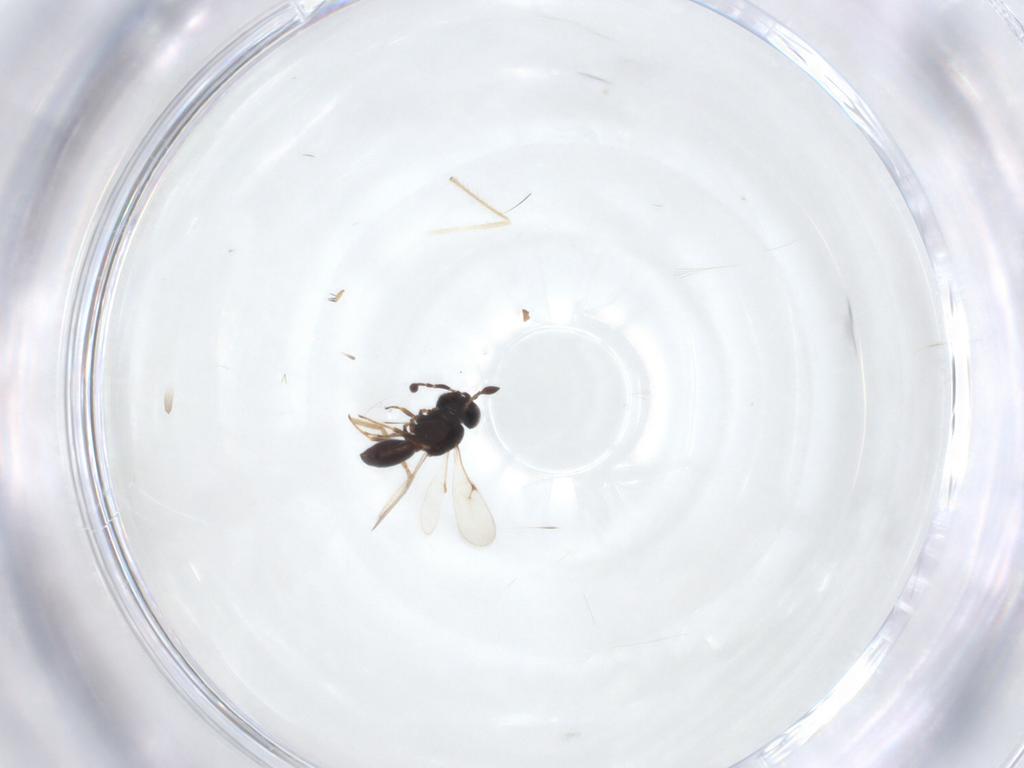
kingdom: Animalia
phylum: Arthropoda
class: Insecta
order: Hymenoptera
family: Scelionidae
